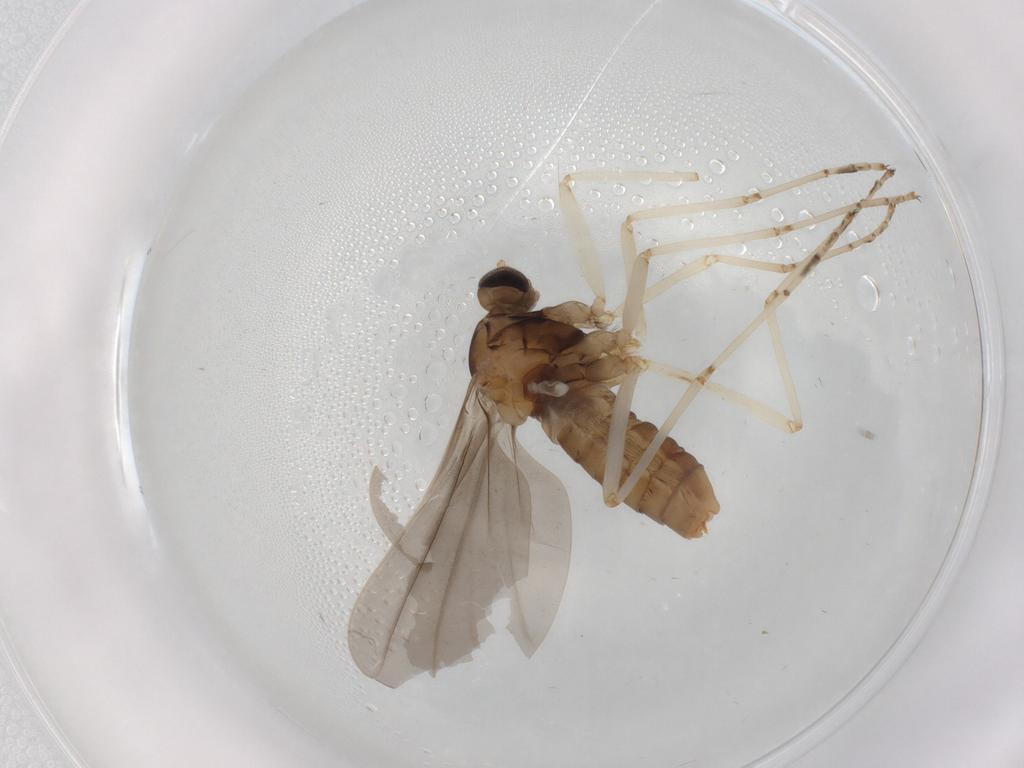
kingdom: Animalia
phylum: Arthropoda
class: Insecta
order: Diptera
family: Cecidomyiidae
